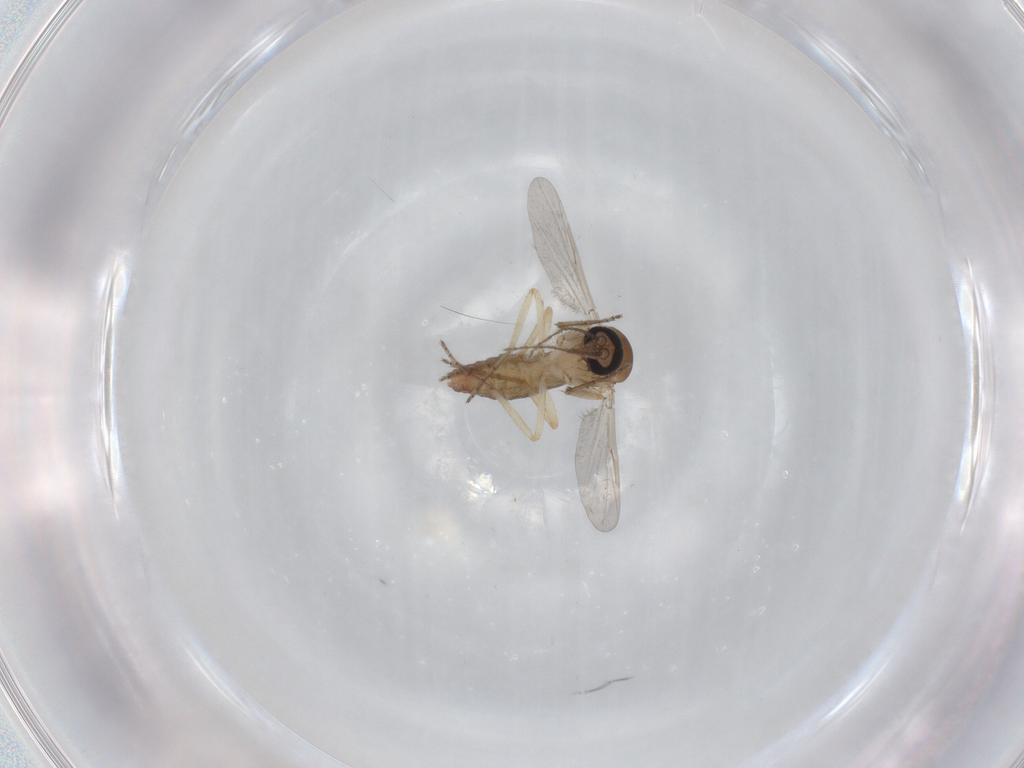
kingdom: Animalia
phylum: Arthropoda
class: Insecta
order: Diptera
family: Ceratopogonidae
